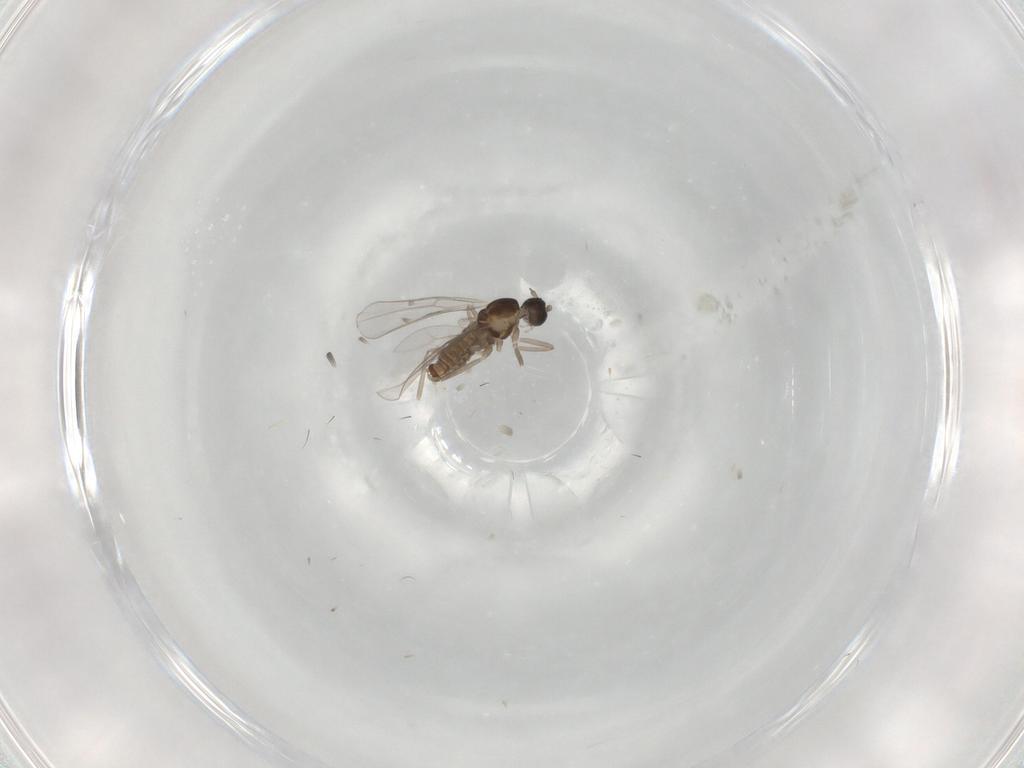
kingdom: Animalia
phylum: Arthropoda
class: Insecta
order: Diptera
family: Cecidomyiidae
